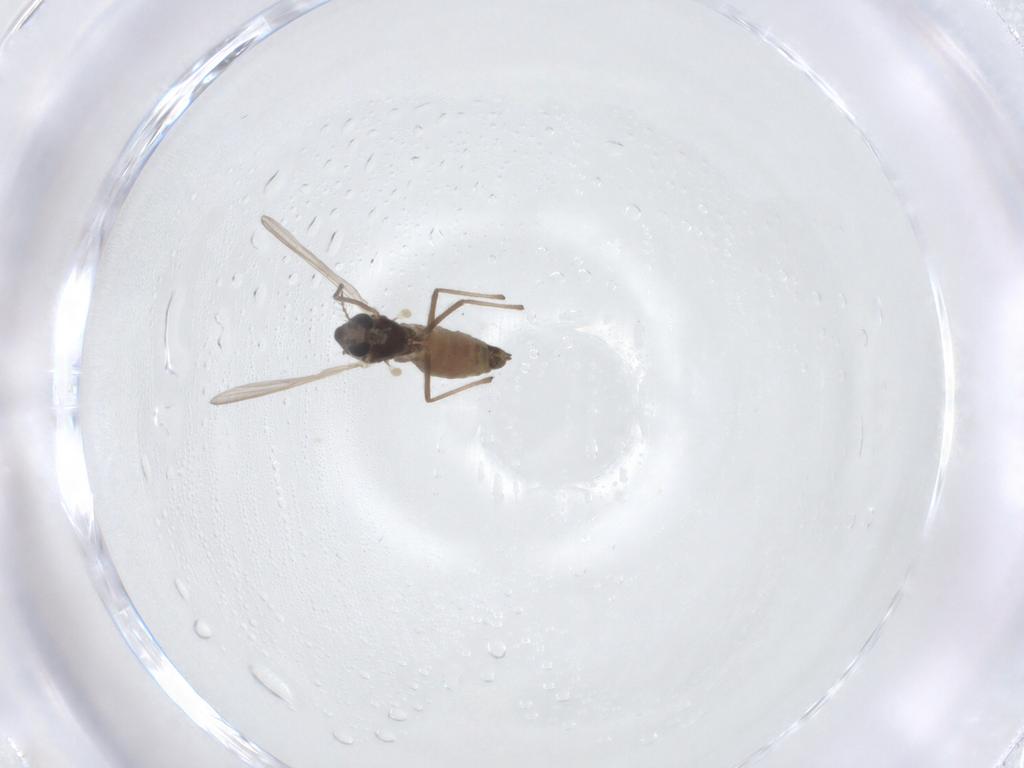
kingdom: Animalia
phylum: Arthropoda
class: Insecta
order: Diptera
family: Chironomidae
